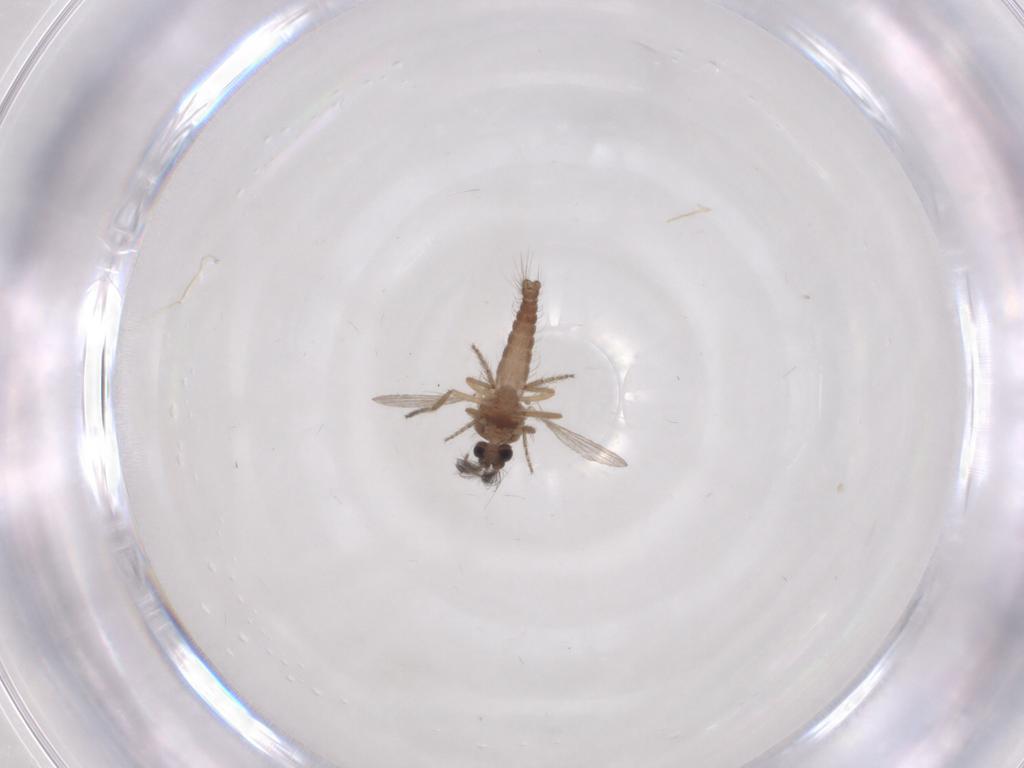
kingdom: Animalia
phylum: Arthropoda
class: Insecta
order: Diptera
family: Ceratopogonidae
